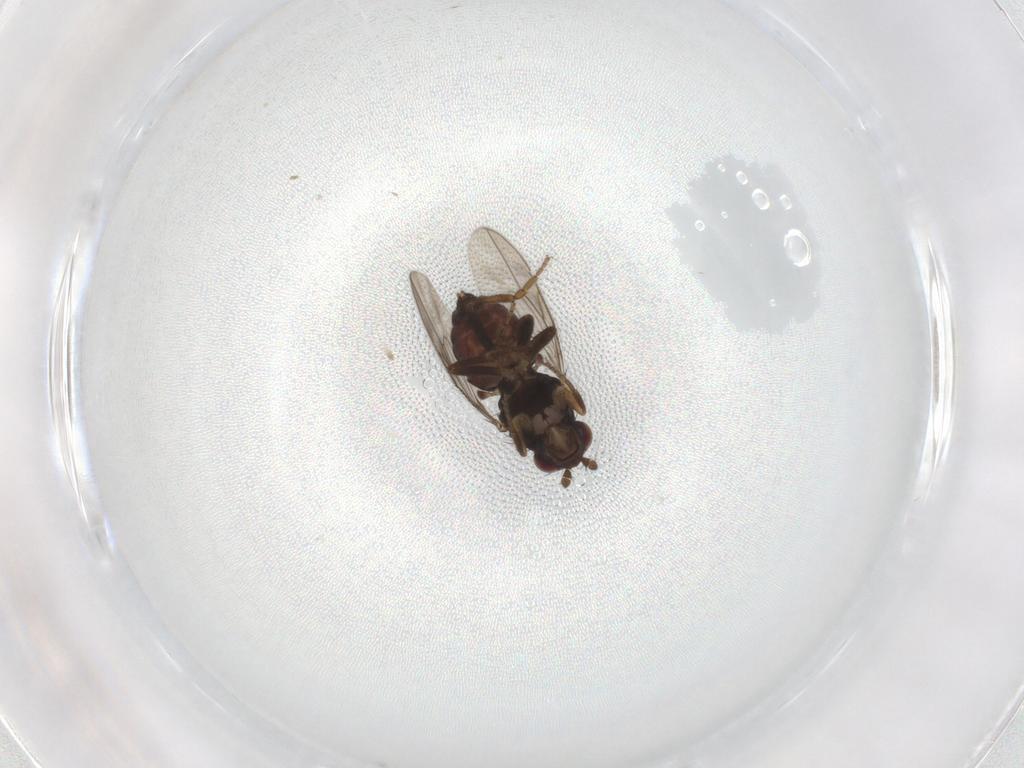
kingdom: Animalia
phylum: Arthropoda
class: Insecta
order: Diptera
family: Sphaeroceridae
